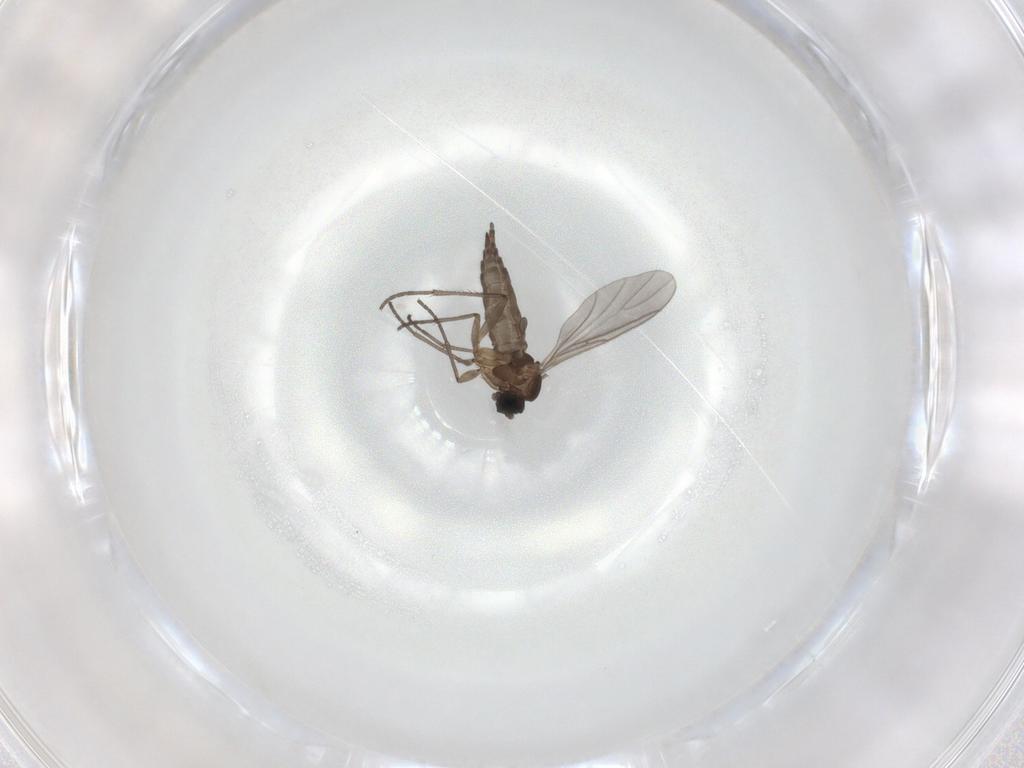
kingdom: Animalia
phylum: Arthropoda
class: Insecta
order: Diptera
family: Sciaridae
